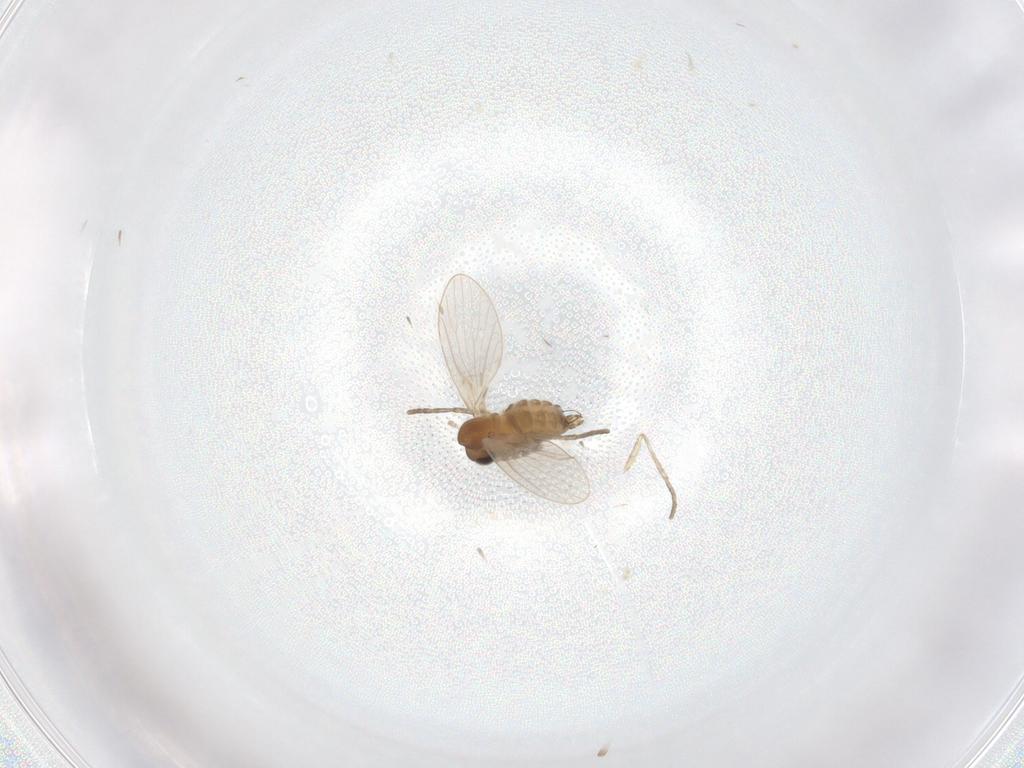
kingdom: Animalia
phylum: Arthropoda
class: Insecta
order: Diptera
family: Psychodidae
